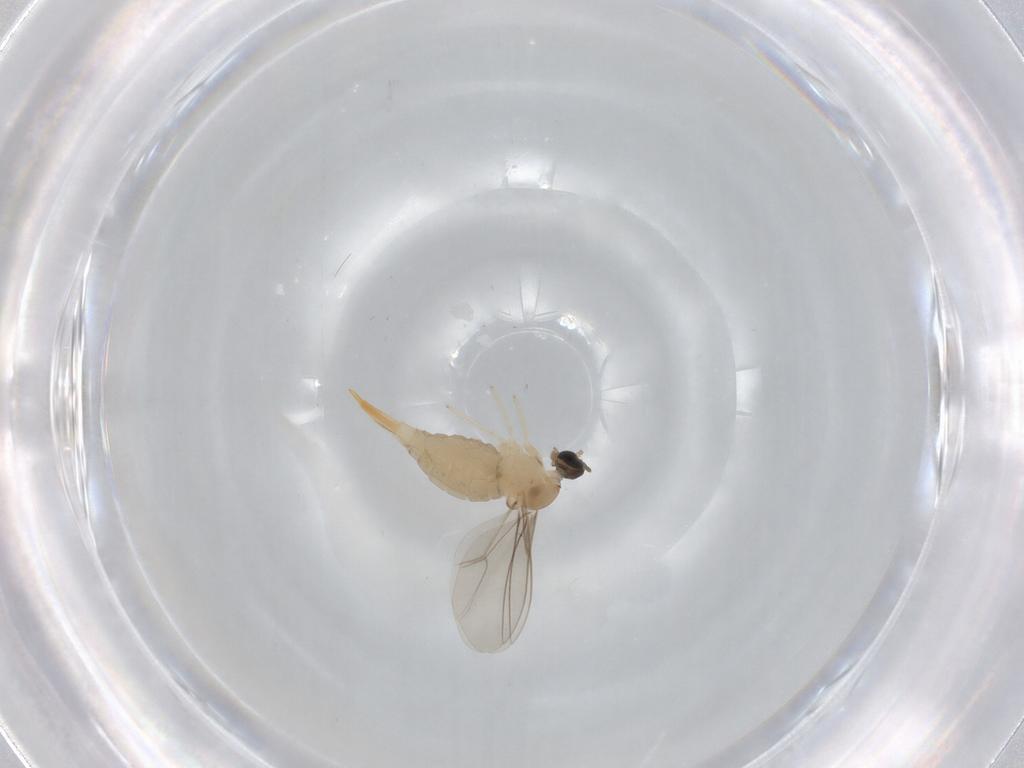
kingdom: Animalia
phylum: Arthropoda
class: Insecta
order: Diptera
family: Cecidomyiidae
